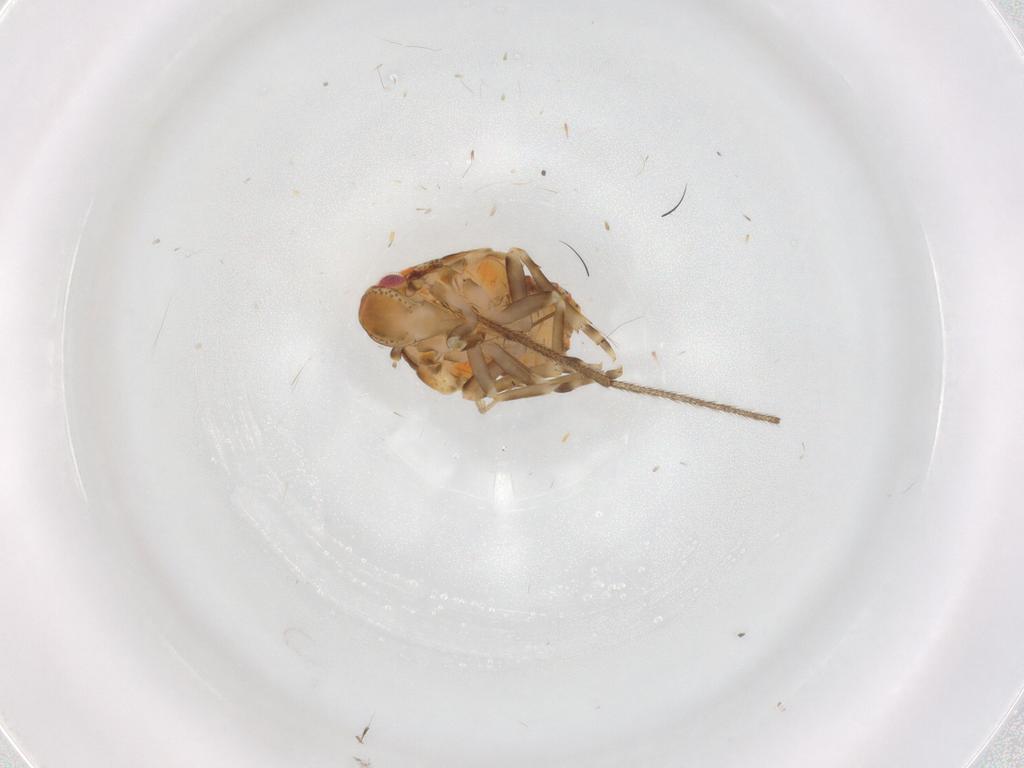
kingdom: Animalia
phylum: Arthropoda
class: Insecta
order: Hemiptera
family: Flatidae
